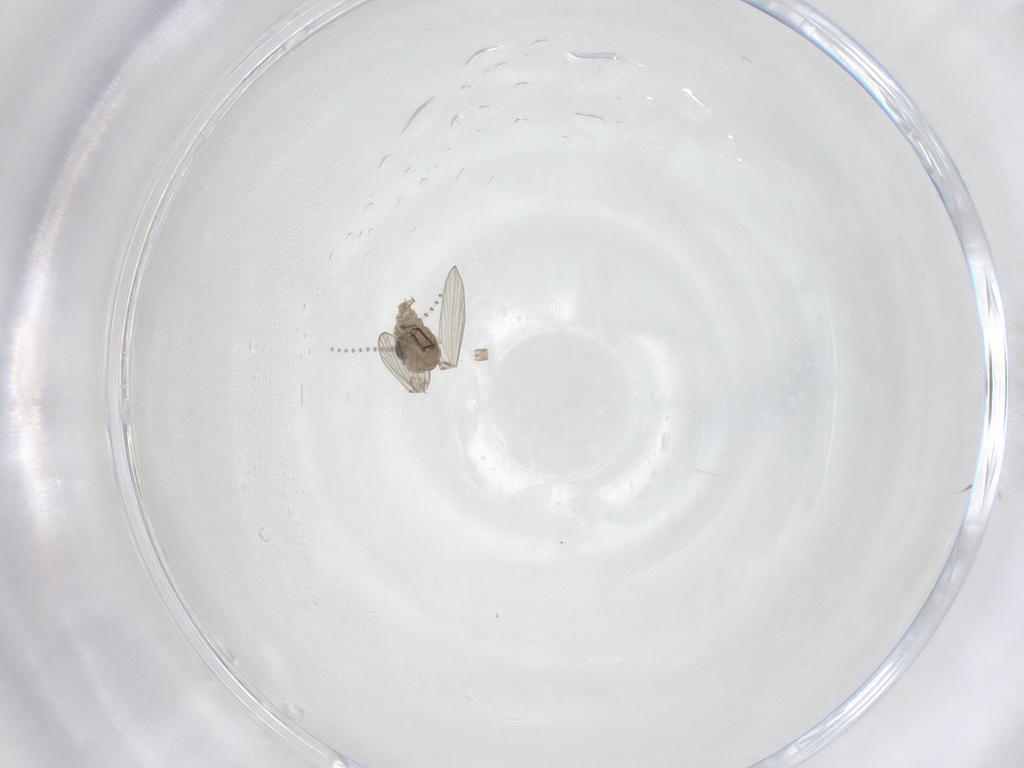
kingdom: Animalia
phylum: Arthropoda
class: Insecta
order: Diptera
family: Psychodidae
